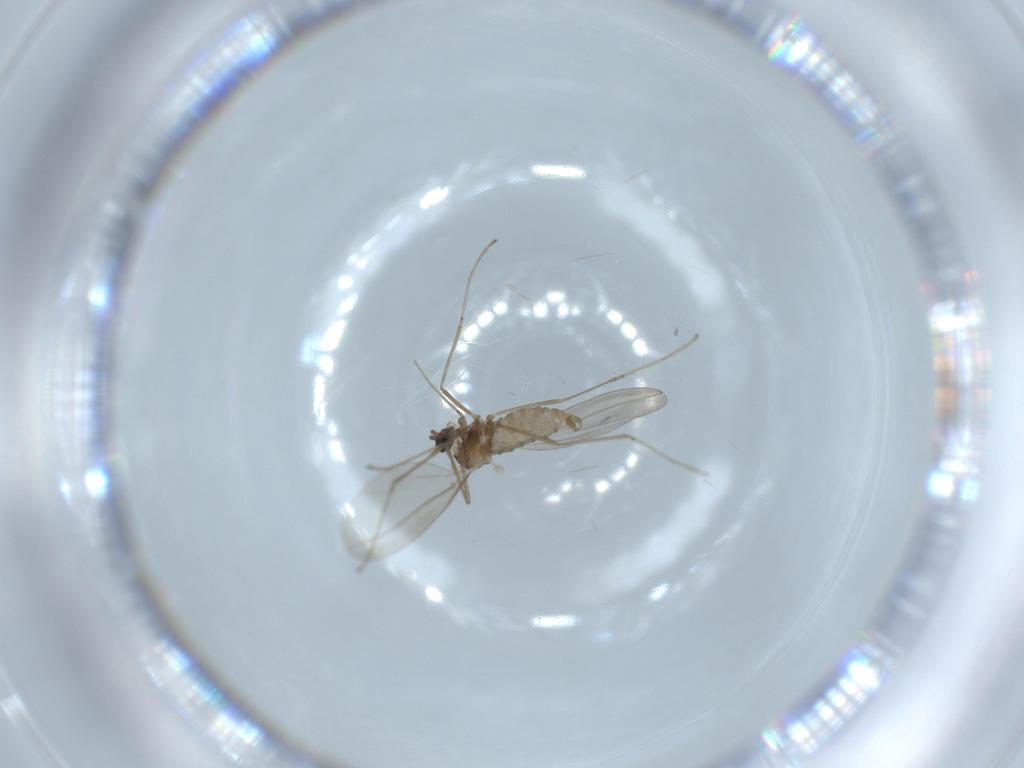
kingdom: Animalia
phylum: Arthropoda
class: Insecta
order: Diptera
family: Cecidomyiidae
